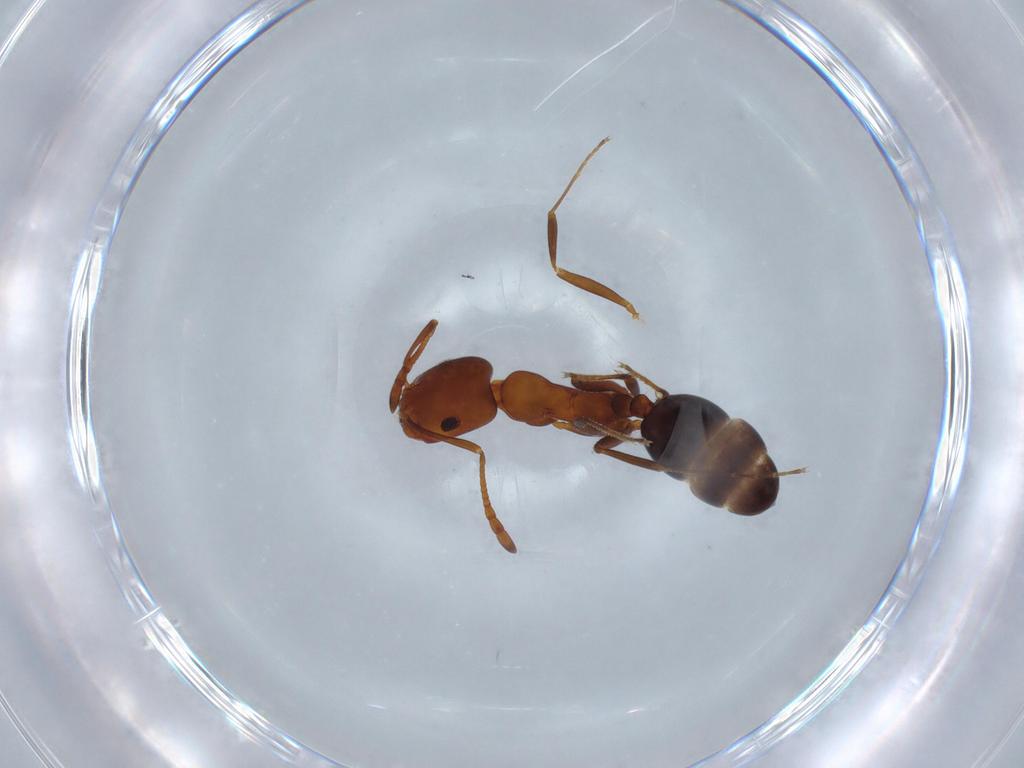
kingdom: Animalia
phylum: Arthropoda
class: Insecta
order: Hymenoptera
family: Formicidae
